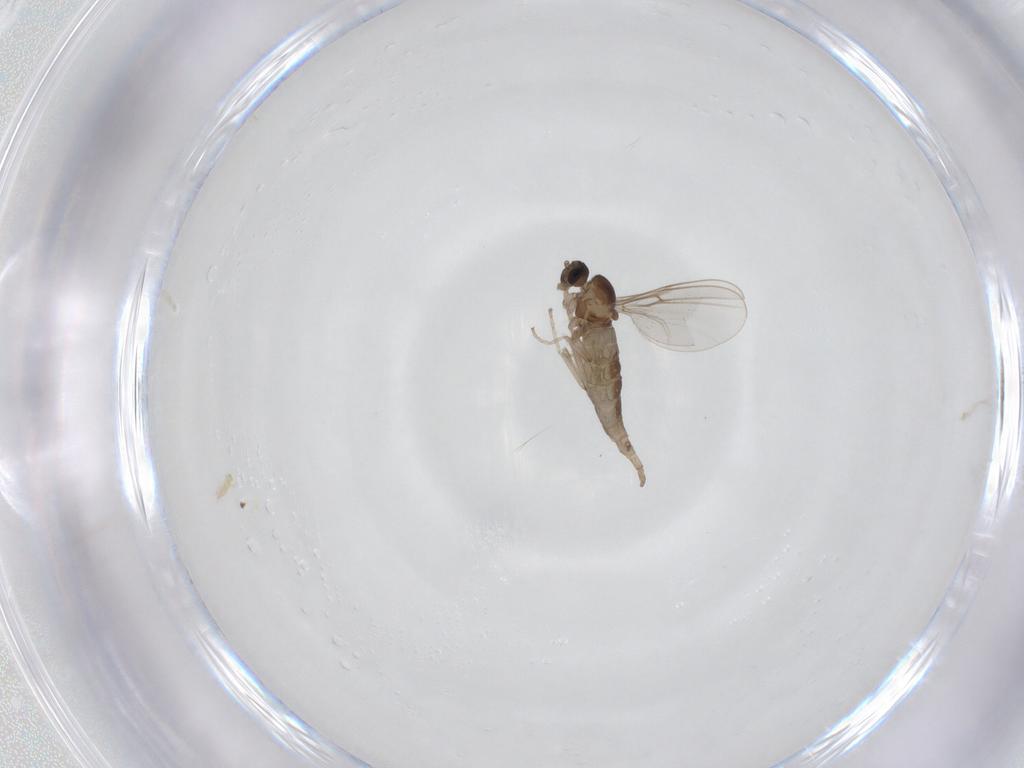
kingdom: Animalia
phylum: Arthropoda
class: Insecta
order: Diptera
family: Cecidomyiidae
